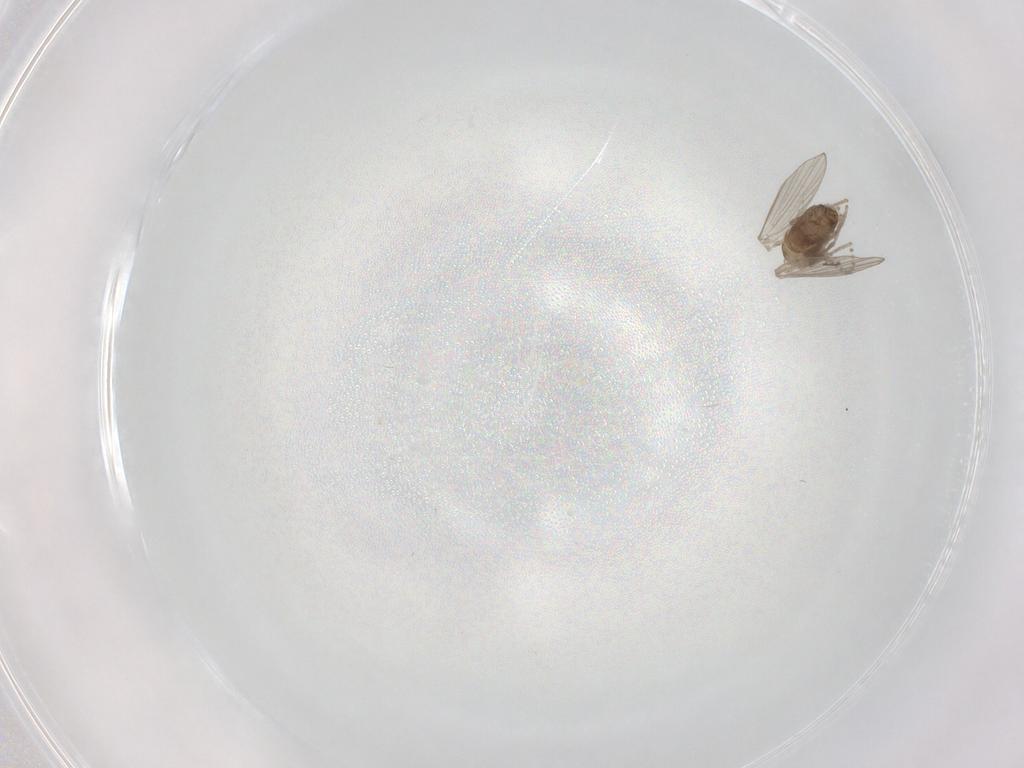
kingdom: Animalia
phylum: Arthropoda
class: Insecta
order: Diptera
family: Psychodidae
